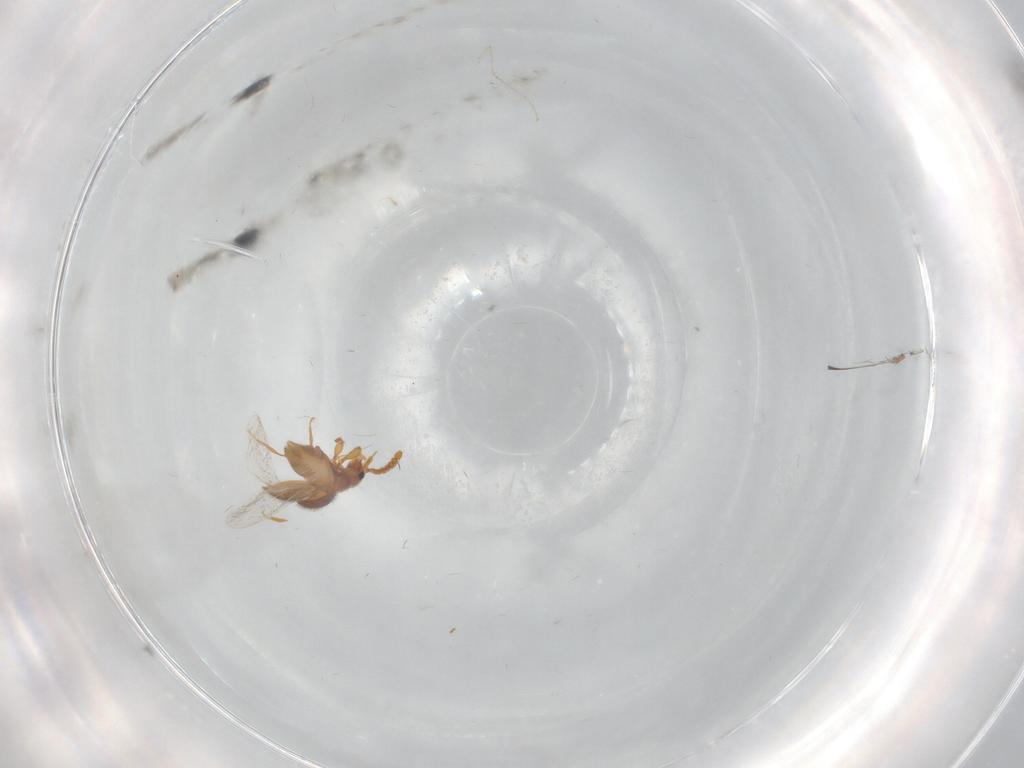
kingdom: Animalia
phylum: Arthropoda
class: Insecta
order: Coleoptera
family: Staphylinidae
